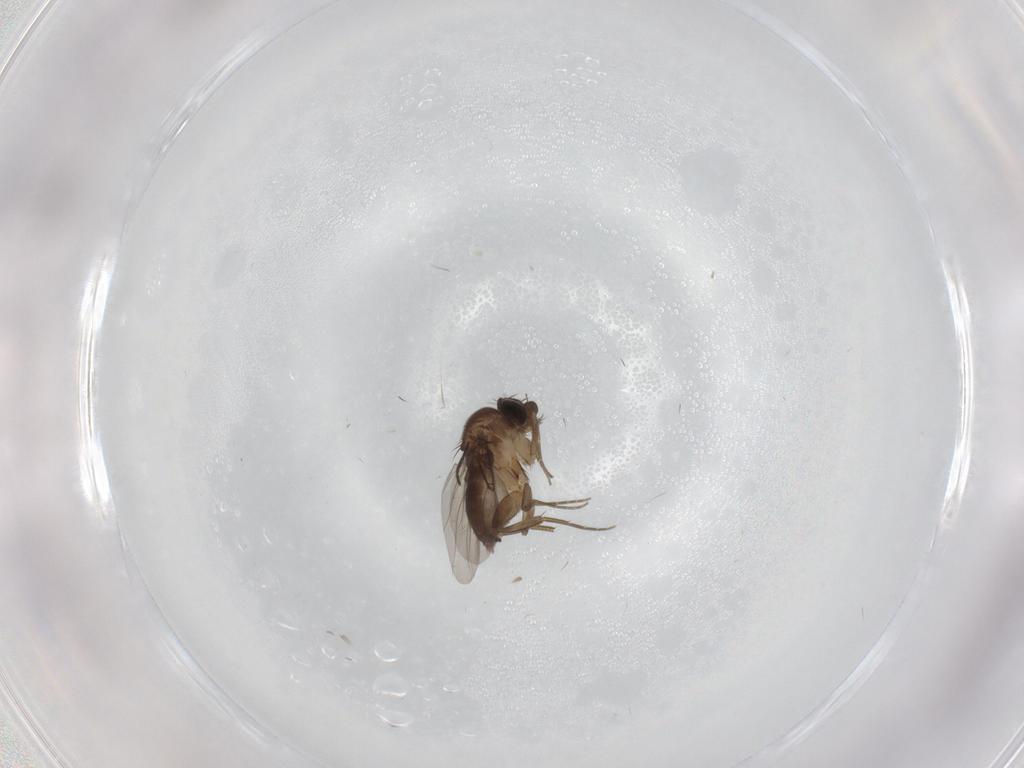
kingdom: Animalia
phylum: Arthropoda
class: Insecta
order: Diptera
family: Phoridae
